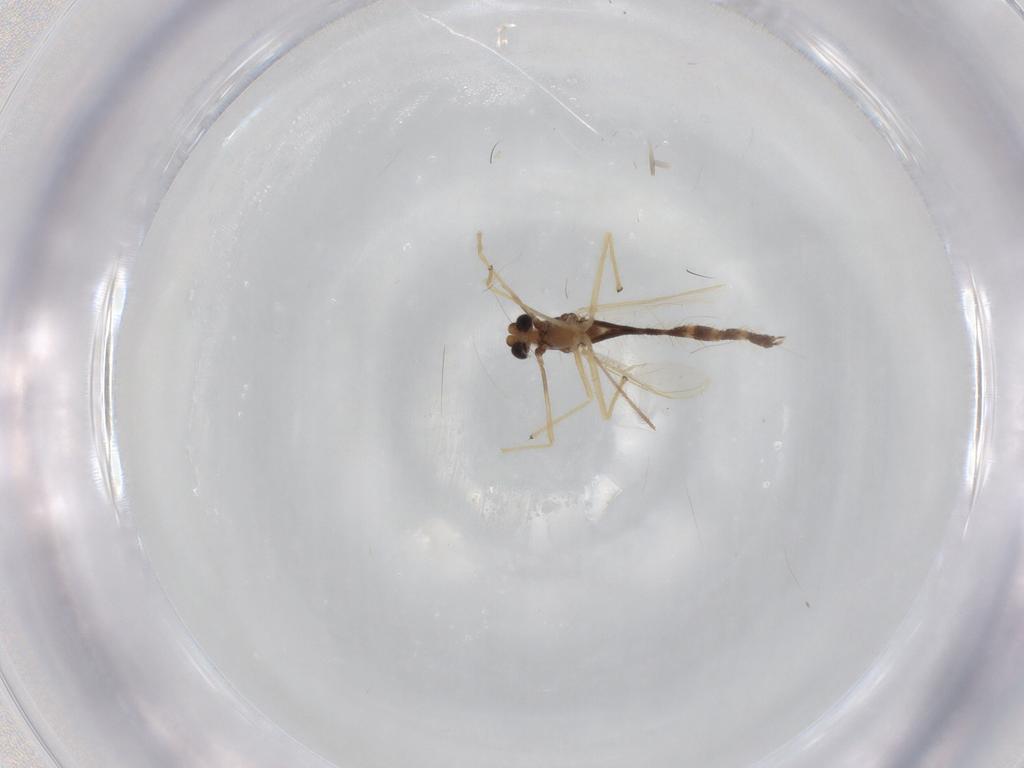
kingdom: Animalia
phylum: Arthropoda
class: Insecta
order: Diptera
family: Chironomidae
